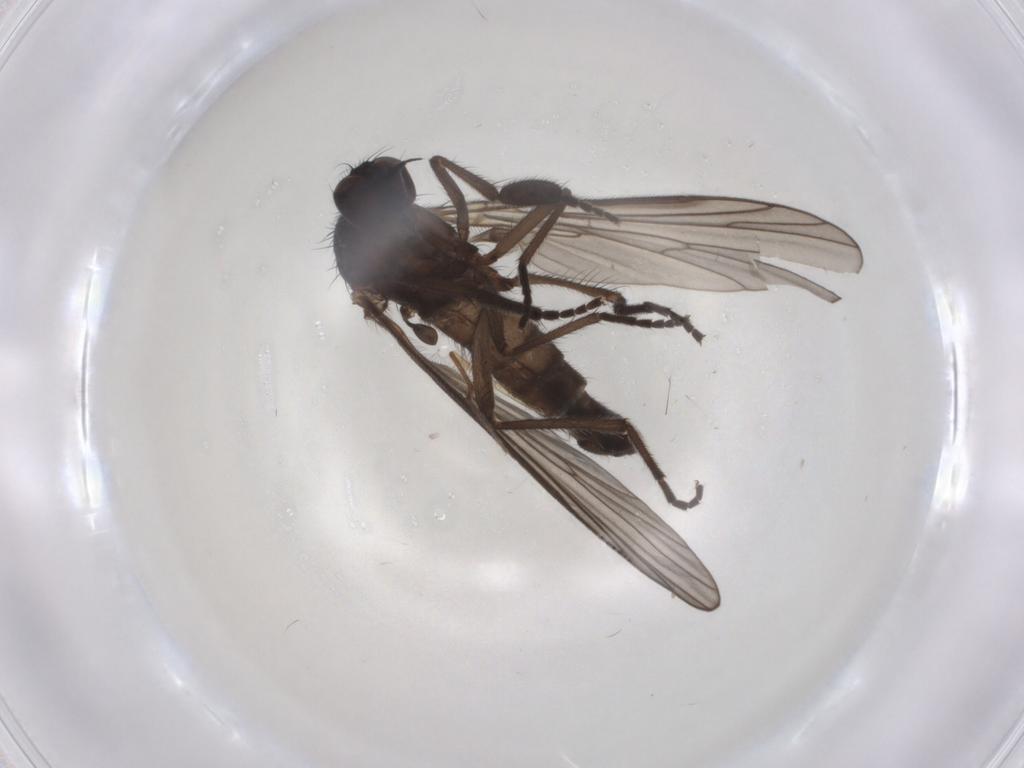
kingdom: Animalia
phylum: Arthropoda
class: Insecta
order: Diptera
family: Empididae
